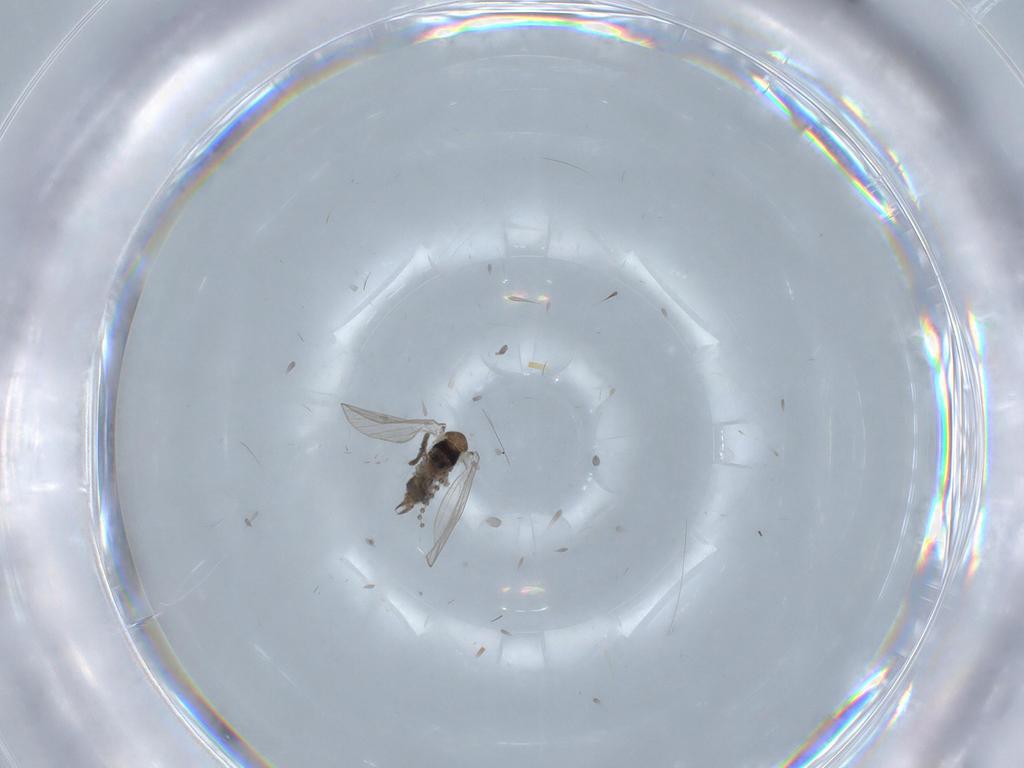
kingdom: Animalia
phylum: Arthropoda
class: Insecta
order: Diptera
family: Psychodidae
